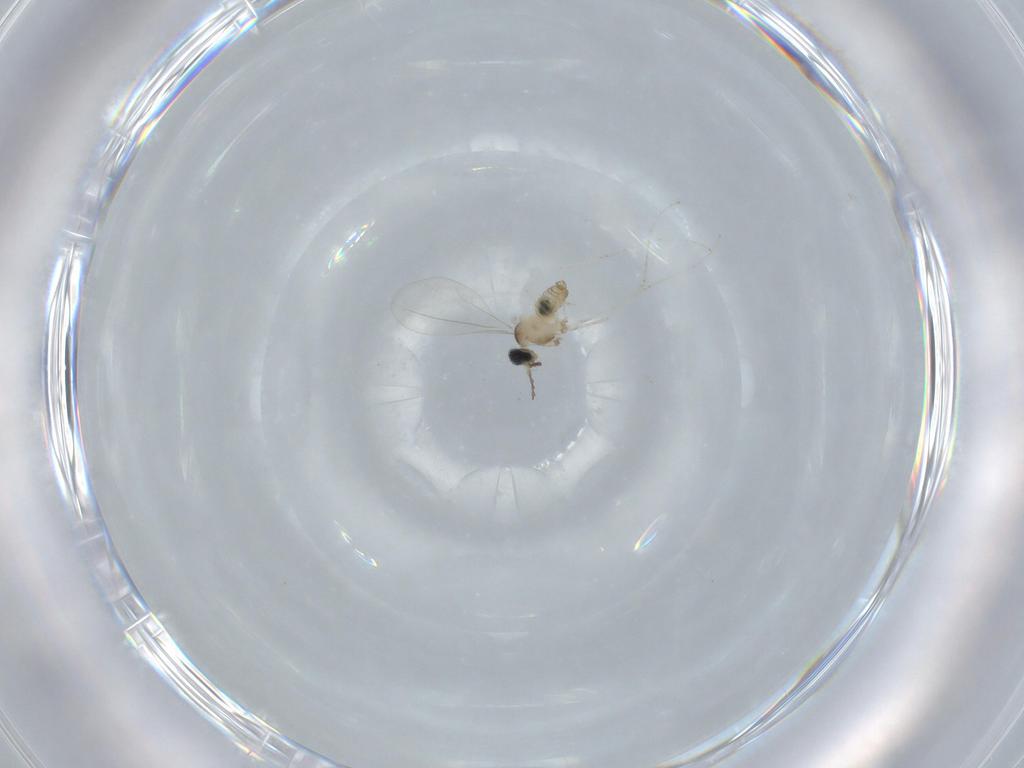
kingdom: Animalia
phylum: Arthropoda
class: Insecta
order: Diptera
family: Cecidomyiidae
